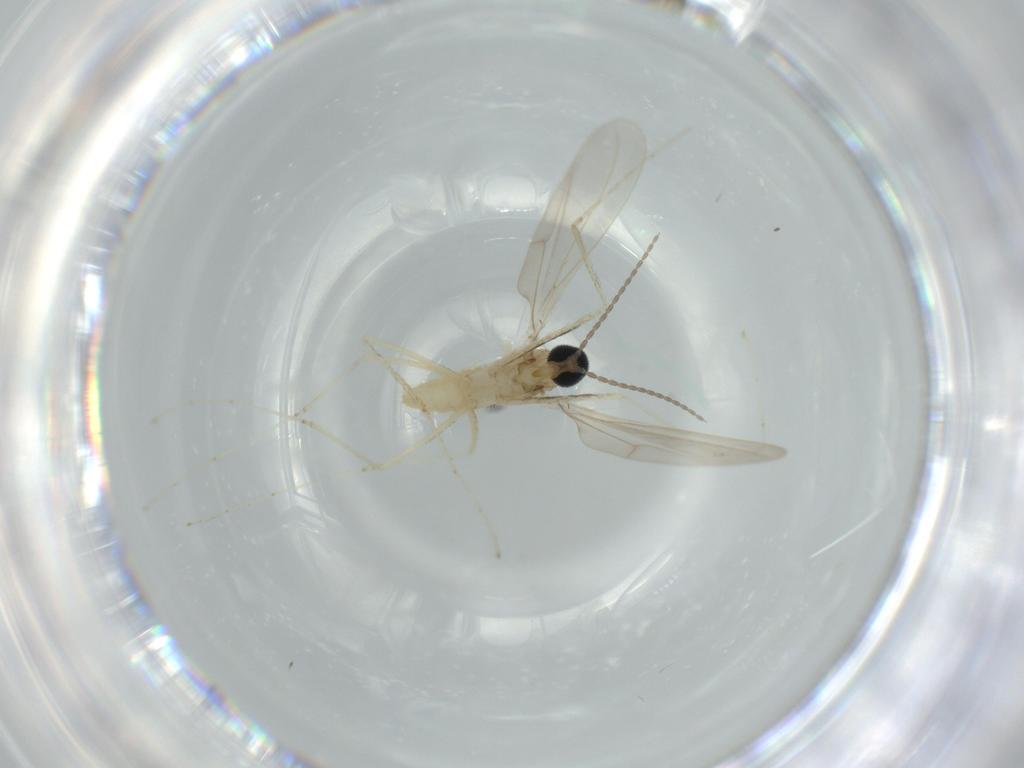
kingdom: Animalia
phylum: Arthropoda
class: Insecta
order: Diptera
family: Cecidomyiidae
